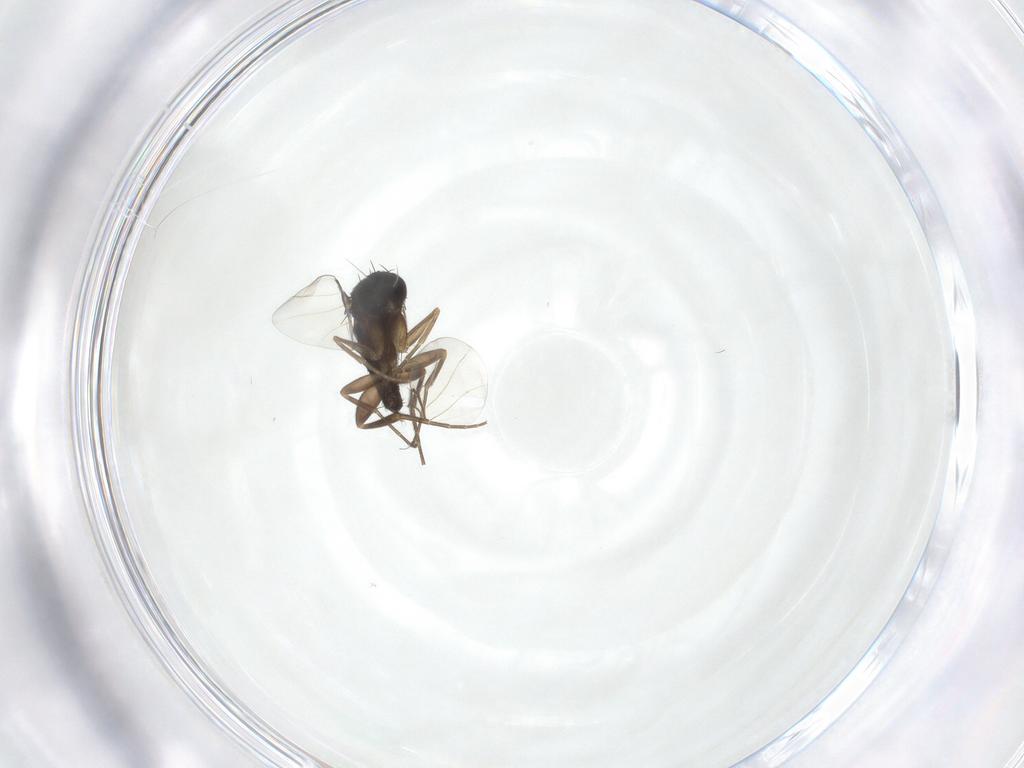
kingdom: Animalia
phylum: Arthropoda
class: Insecta
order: Diptera
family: Phoridae
